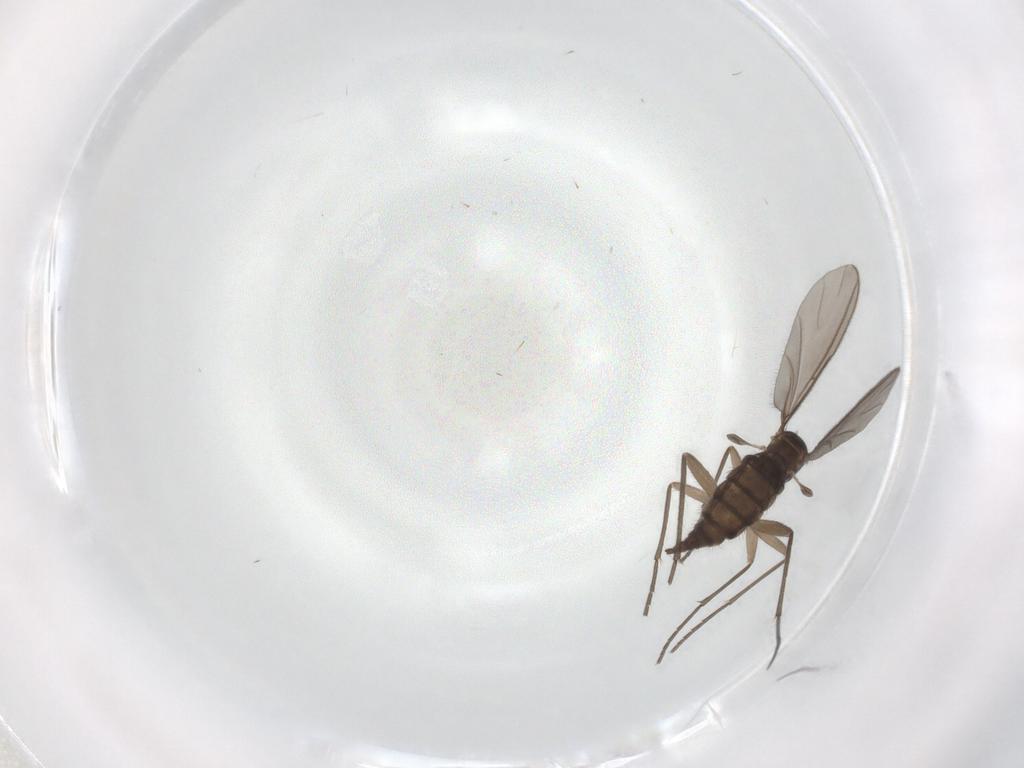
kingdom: Animalia
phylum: Arthropoda
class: Insecta
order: Diptera
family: Sciaridae
